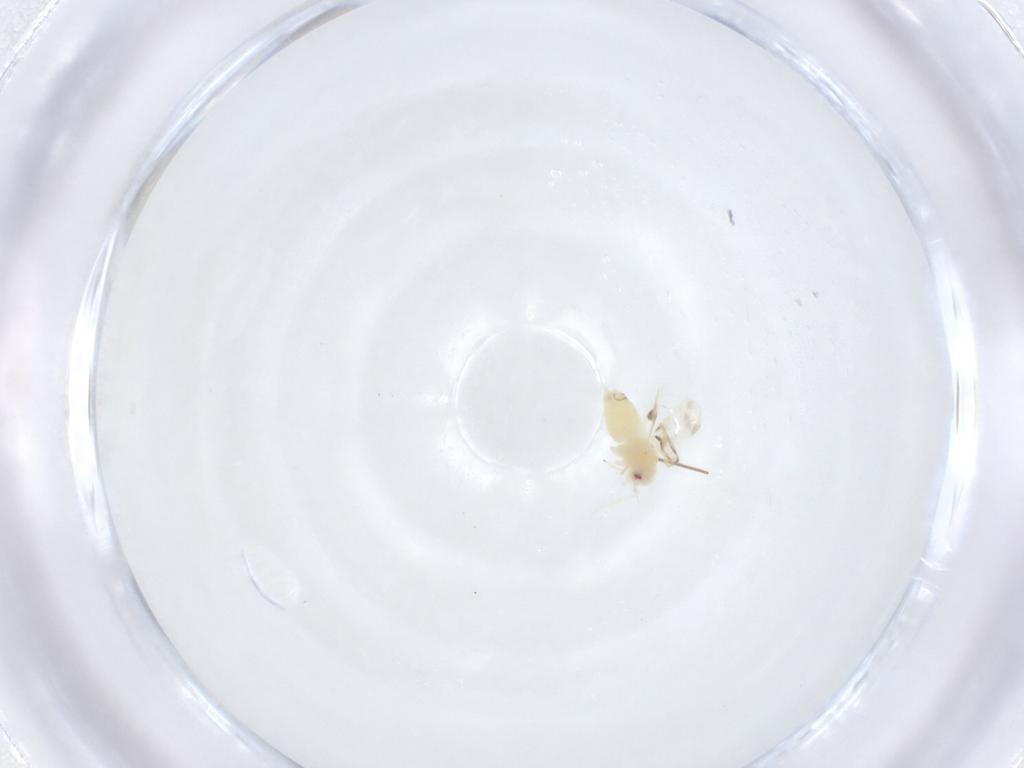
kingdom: Animalia
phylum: Arthropoda
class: Insecta
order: Hemiptera
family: Aleyrodidae
